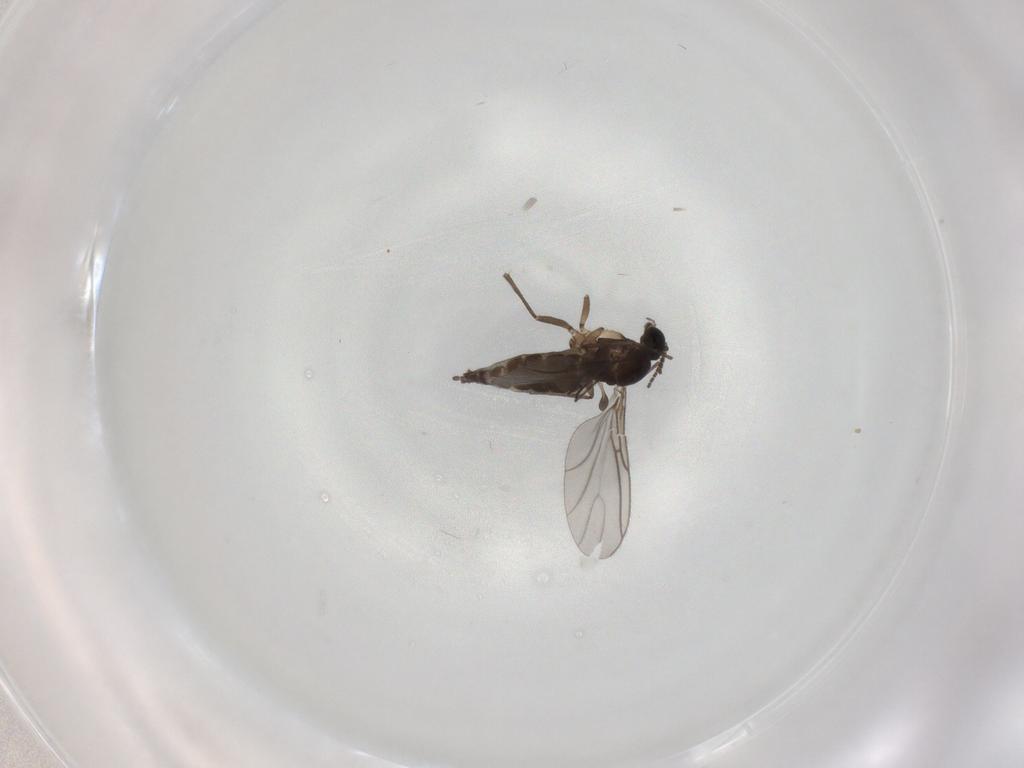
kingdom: Animalia
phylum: Arthropoda
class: Insecta
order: Diptera
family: Sciaridae
